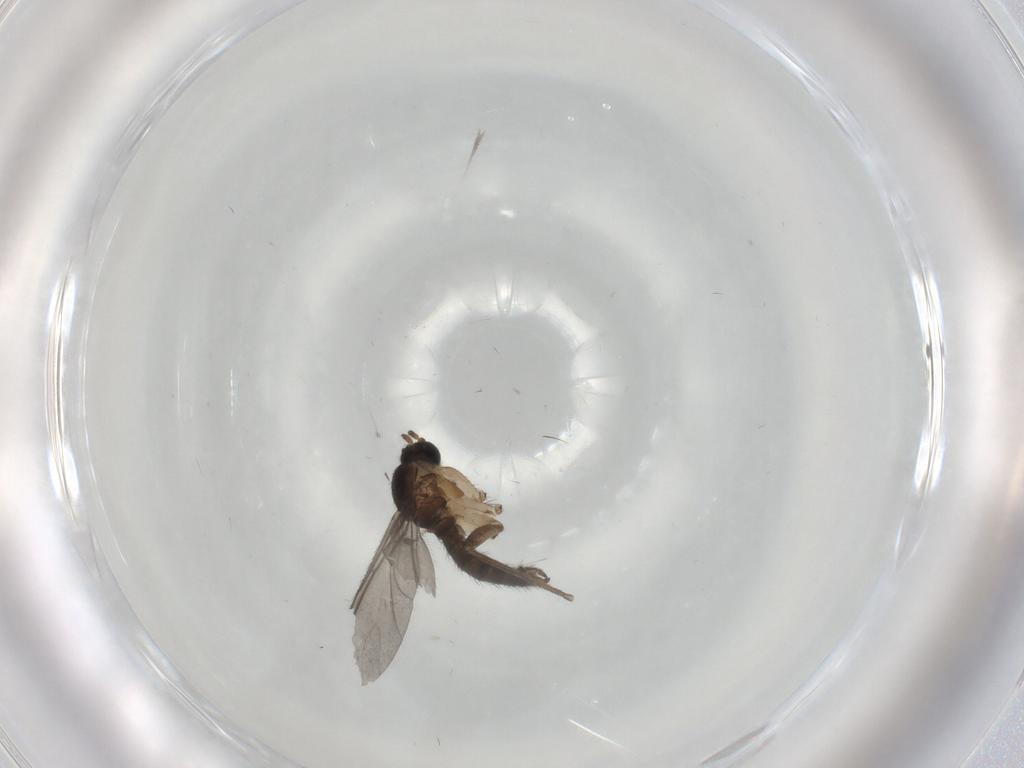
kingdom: Animalia
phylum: Arthropoda
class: Insecta
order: Diptera
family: Sciaridae
